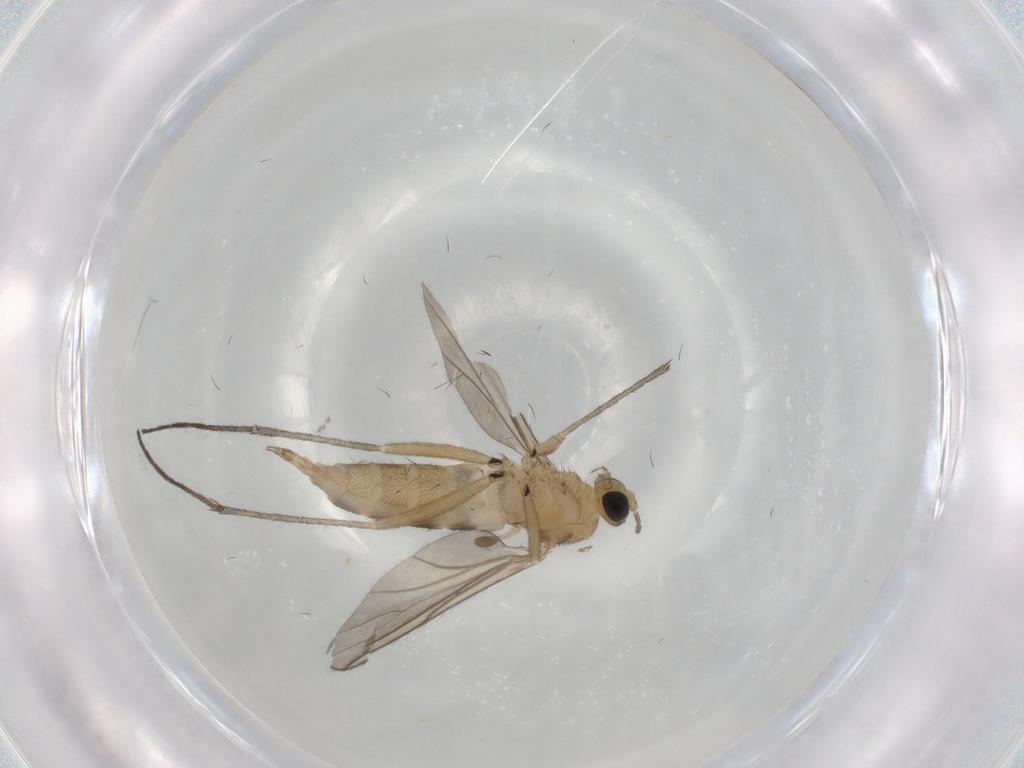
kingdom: Animalia
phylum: Arthropoda
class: Insecta
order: Diptera
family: Sciaridae
